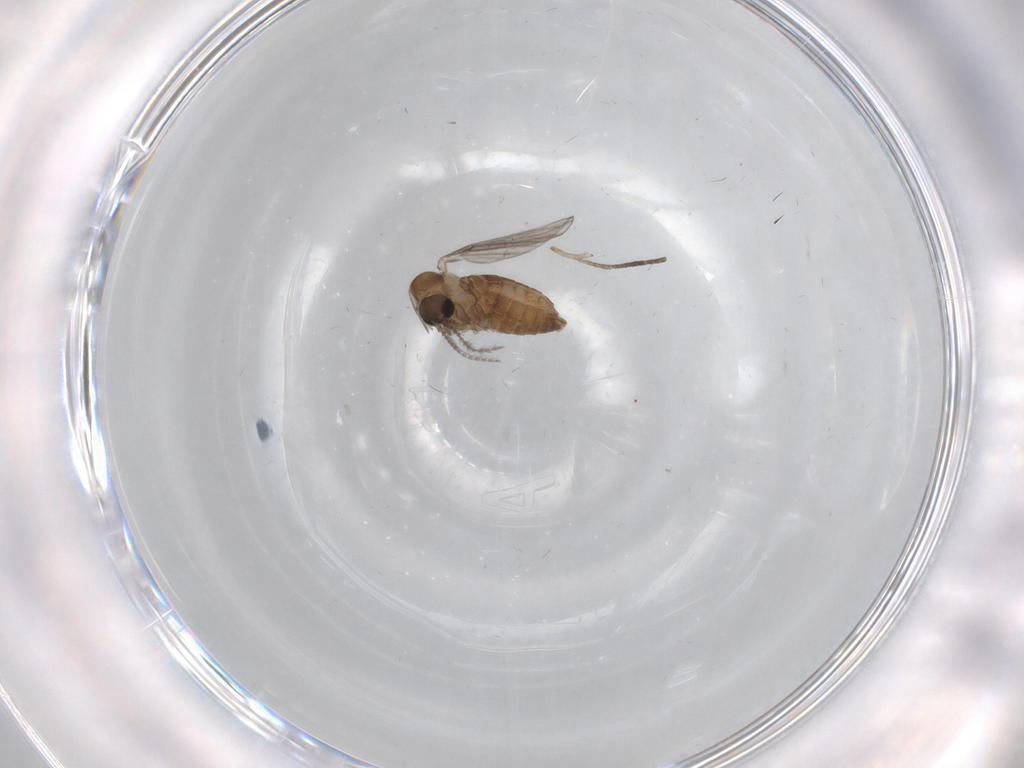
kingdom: Animalia
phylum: Arthropoda
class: Insecta
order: Diptera
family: Psychodidae
